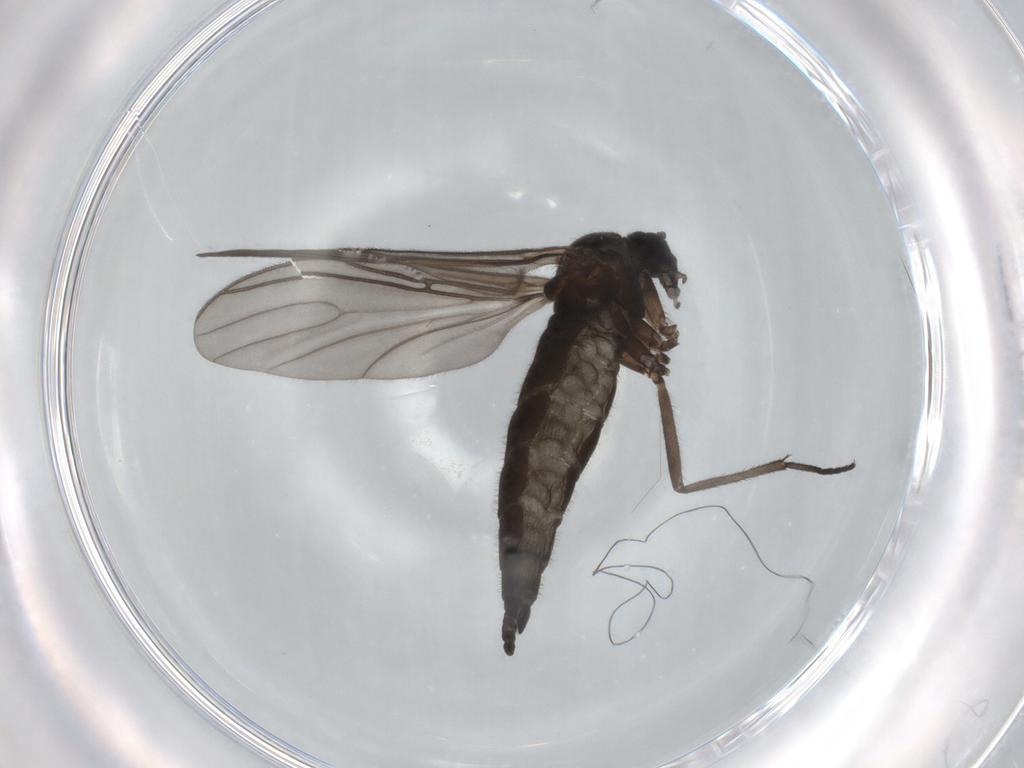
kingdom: Animalia
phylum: Arthropoda
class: Insecta
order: Diptera
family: Sciaridae
